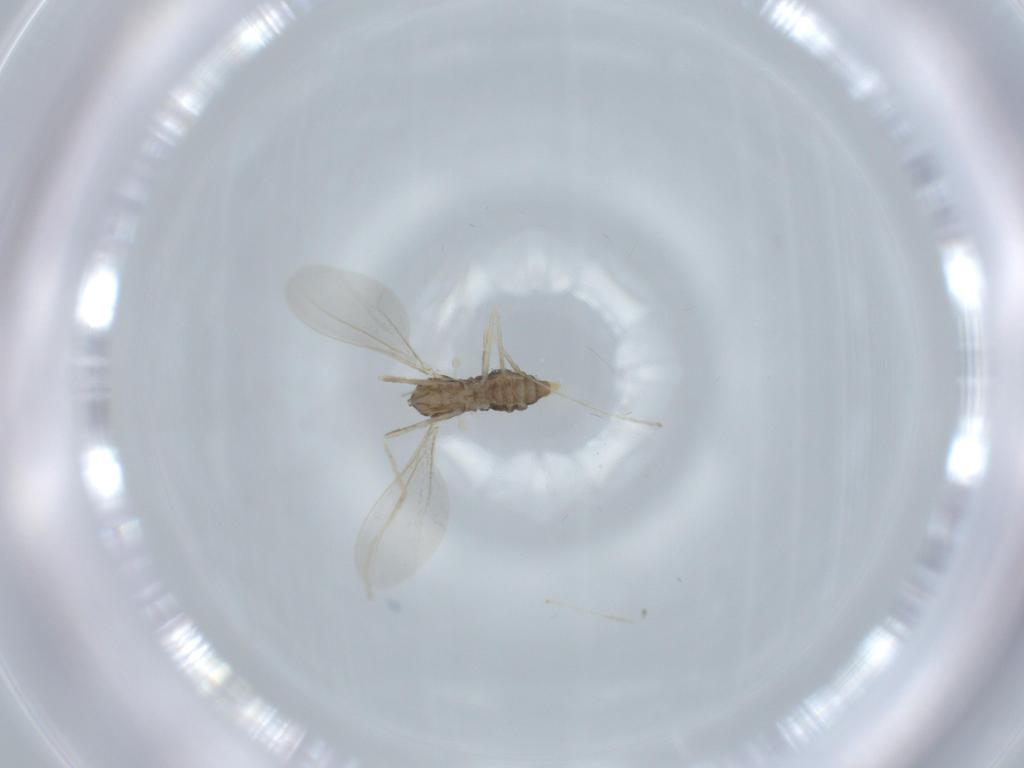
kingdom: Animalia
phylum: Arthropoda
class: Insecta
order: Diptera
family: Cecidomyiidae
